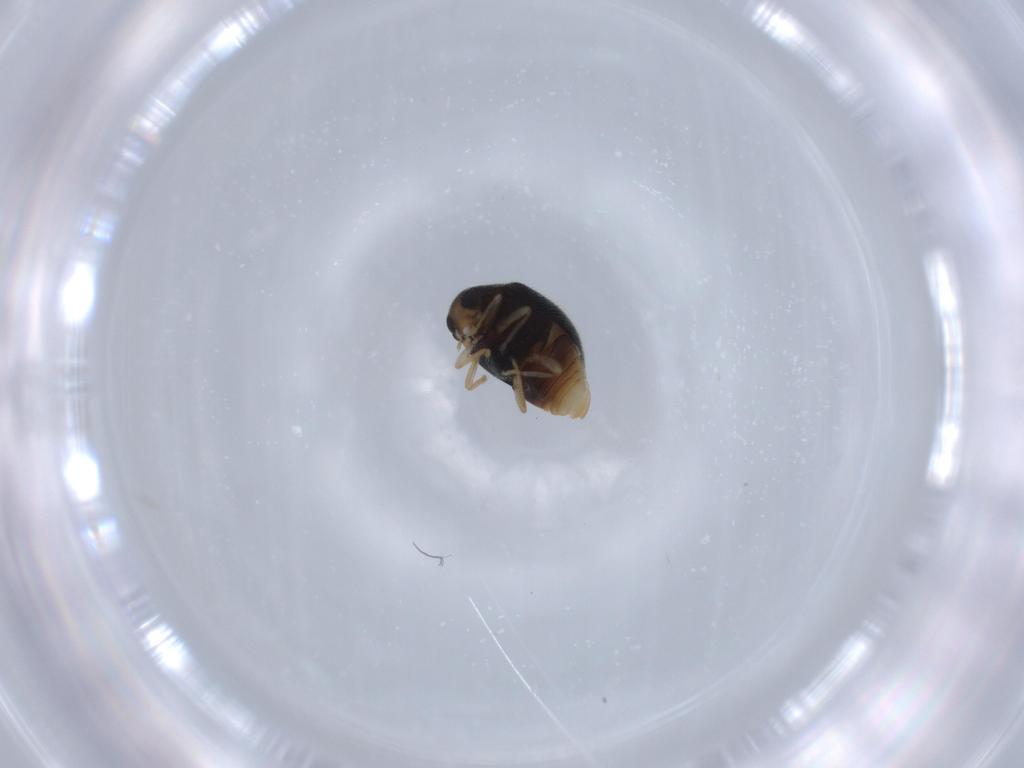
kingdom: Animalia
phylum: Arthropoda
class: Insecta
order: Coleoptera
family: Coccinellidae
